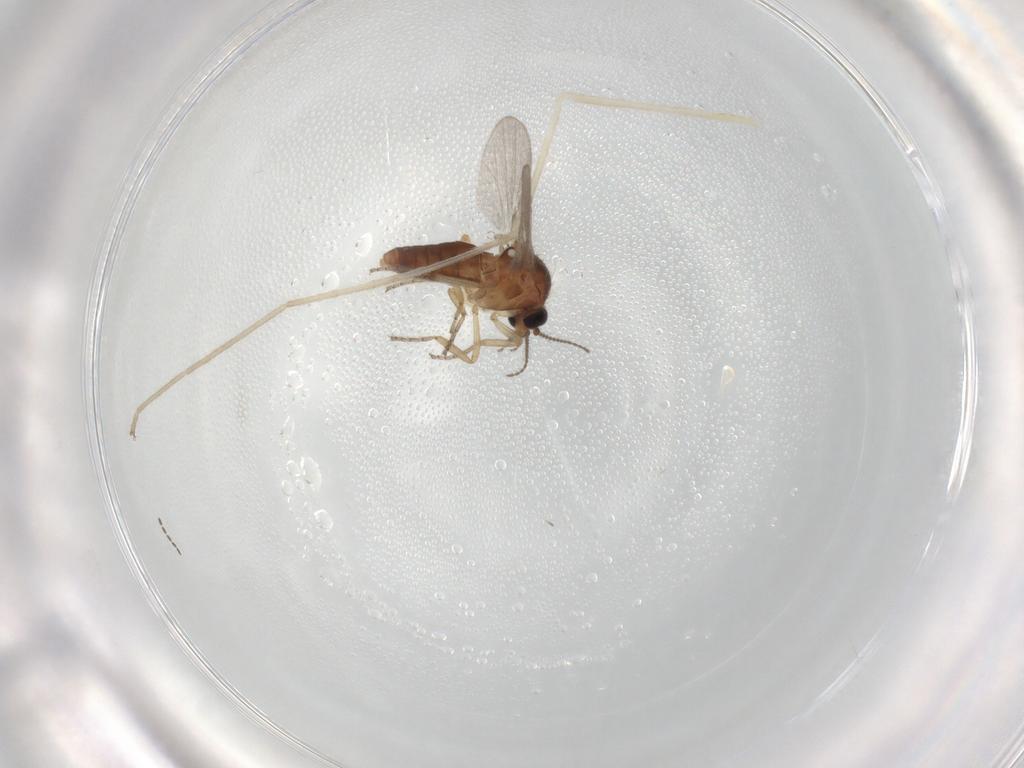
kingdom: Animalia
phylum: Arthropoda
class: Insecta
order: Diptera
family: Ceratopogonidae
